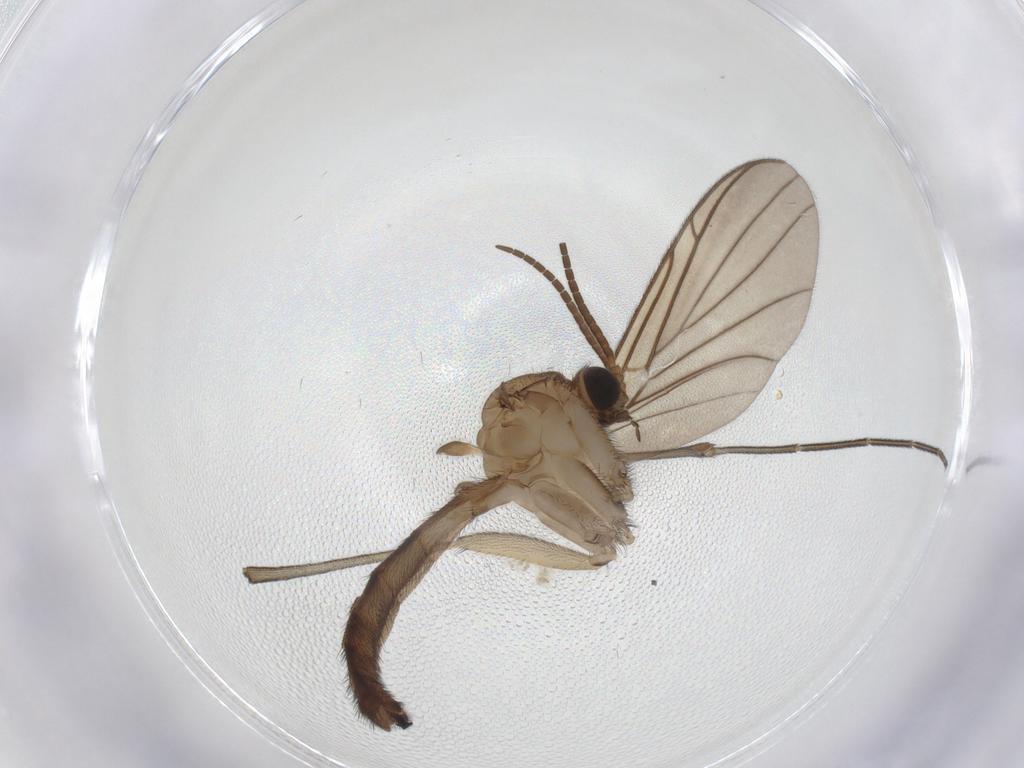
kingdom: Animalia
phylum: Arthropoda
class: Insecta
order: Diptera
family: Keroplatidae
